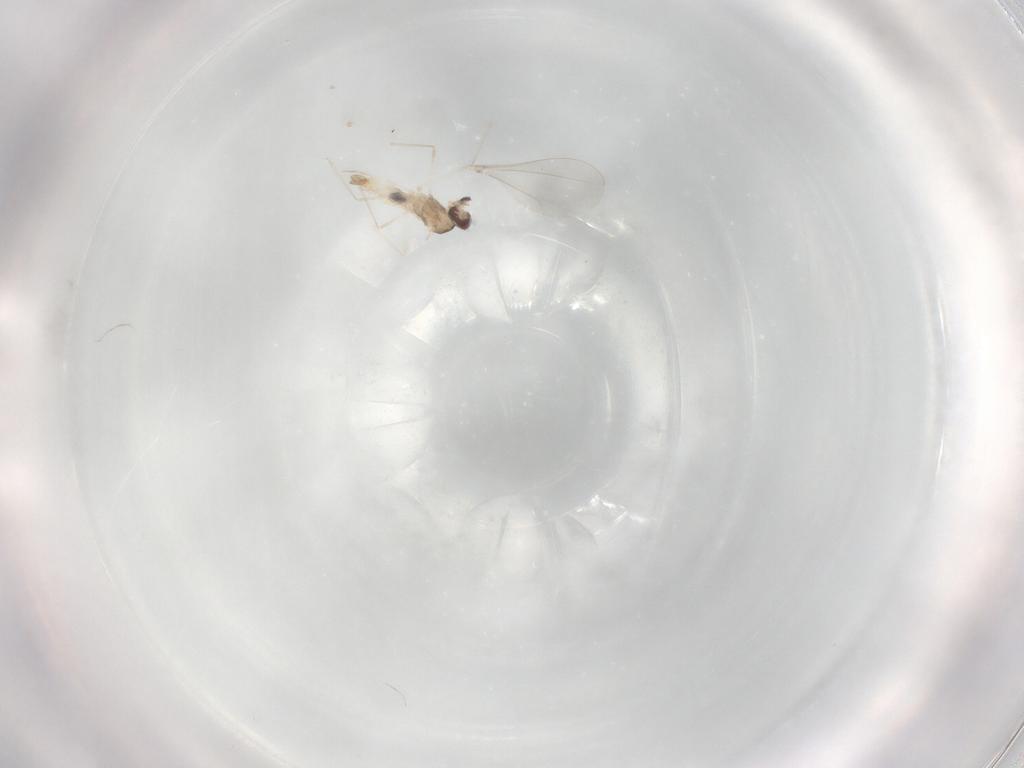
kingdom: Animalia
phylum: Arthropoda
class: Insecta
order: Diptera
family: Cecidomyiidae
